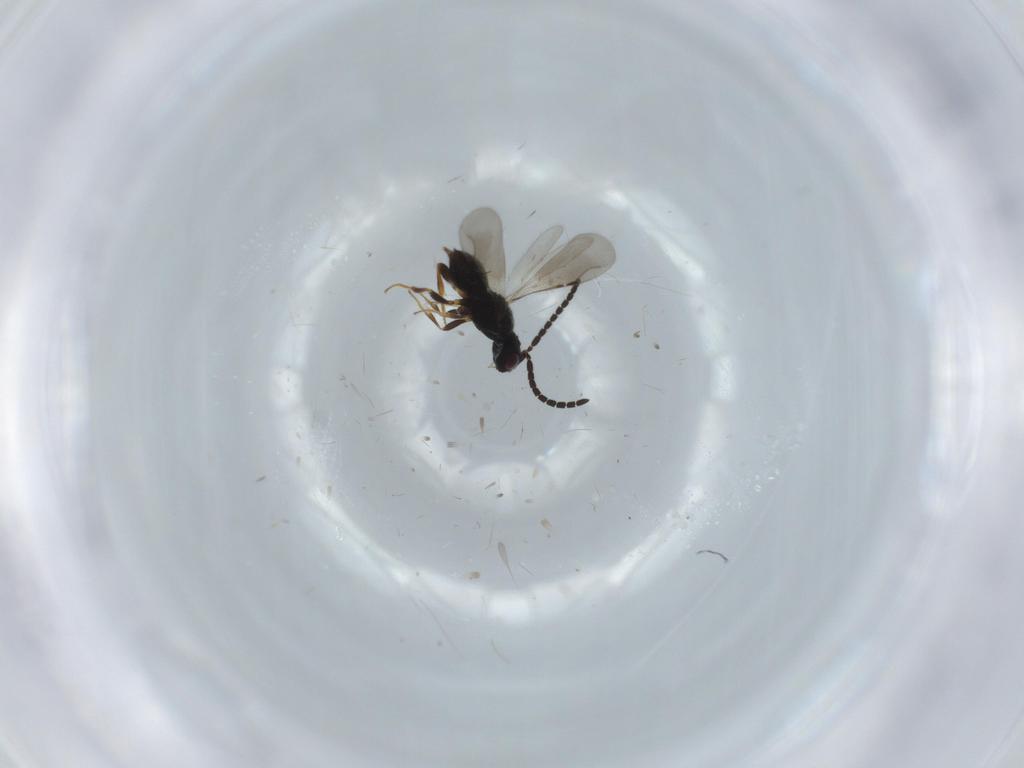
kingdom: Animalia
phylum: Arthropoda
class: Insecta
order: Hymenoptera
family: Ceraphronidae
